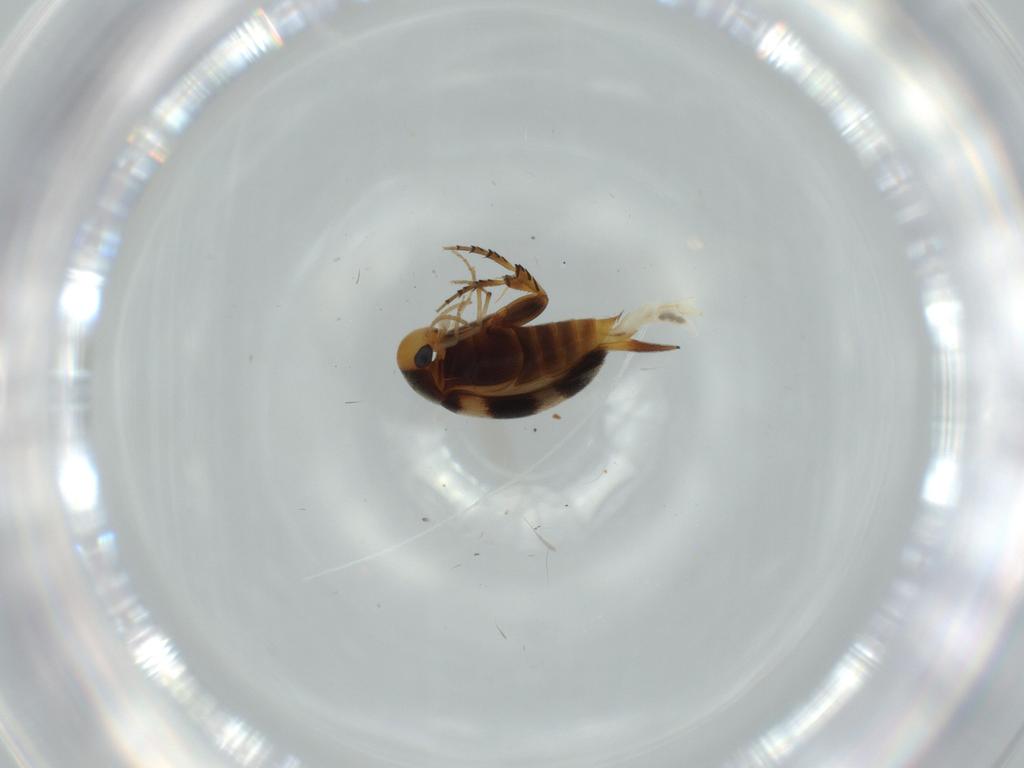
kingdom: Animalia
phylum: Arthropoda
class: Insecta
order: Coleoptera
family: Mordellidae
